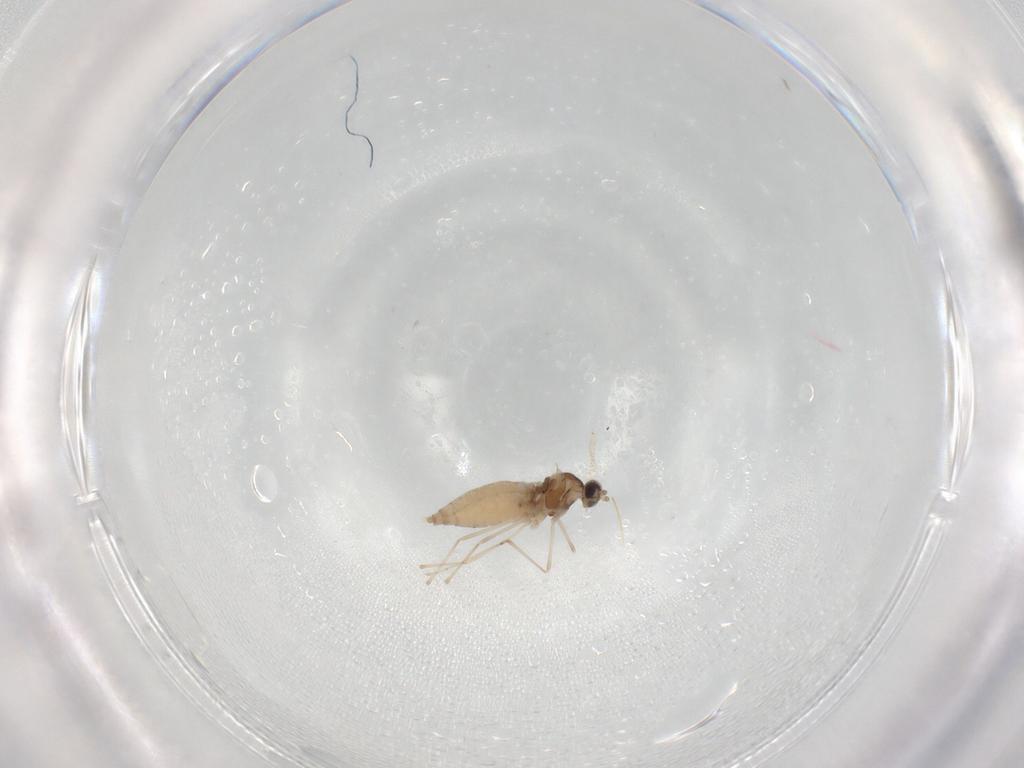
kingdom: Animalia
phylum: Arthropoda
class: Insecta
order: Diptera
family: Cecidomyiidae
